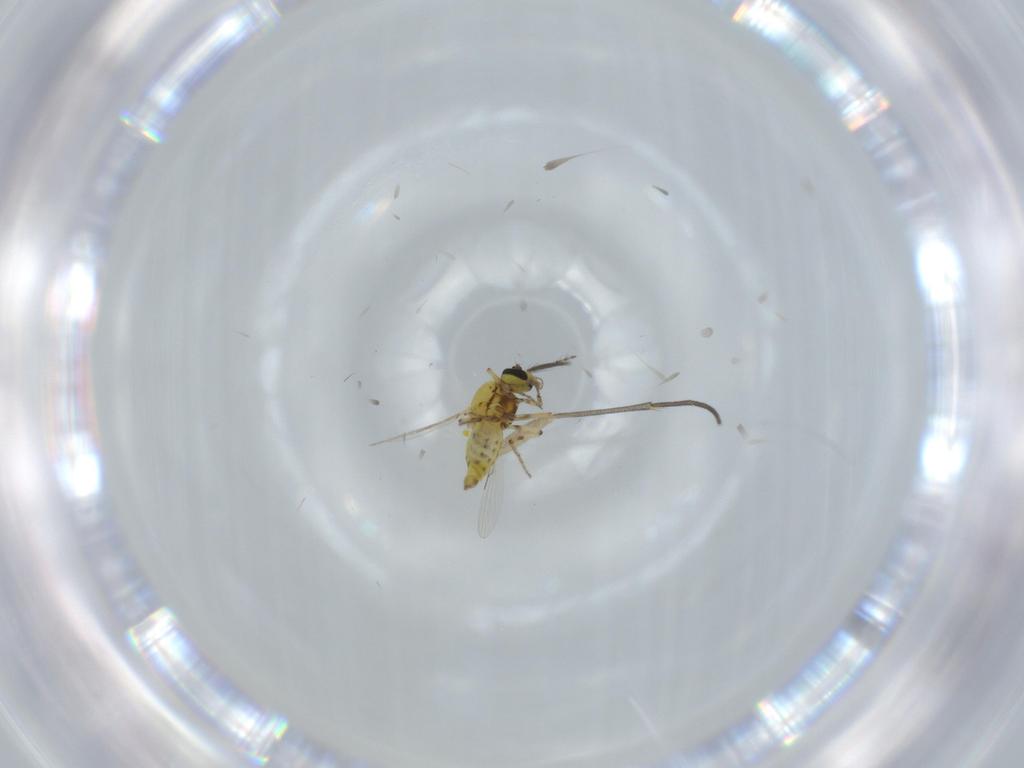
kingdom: Animalia
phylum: Arthropoda
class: Insecta
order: Diptera
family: Ceratopogonidae
